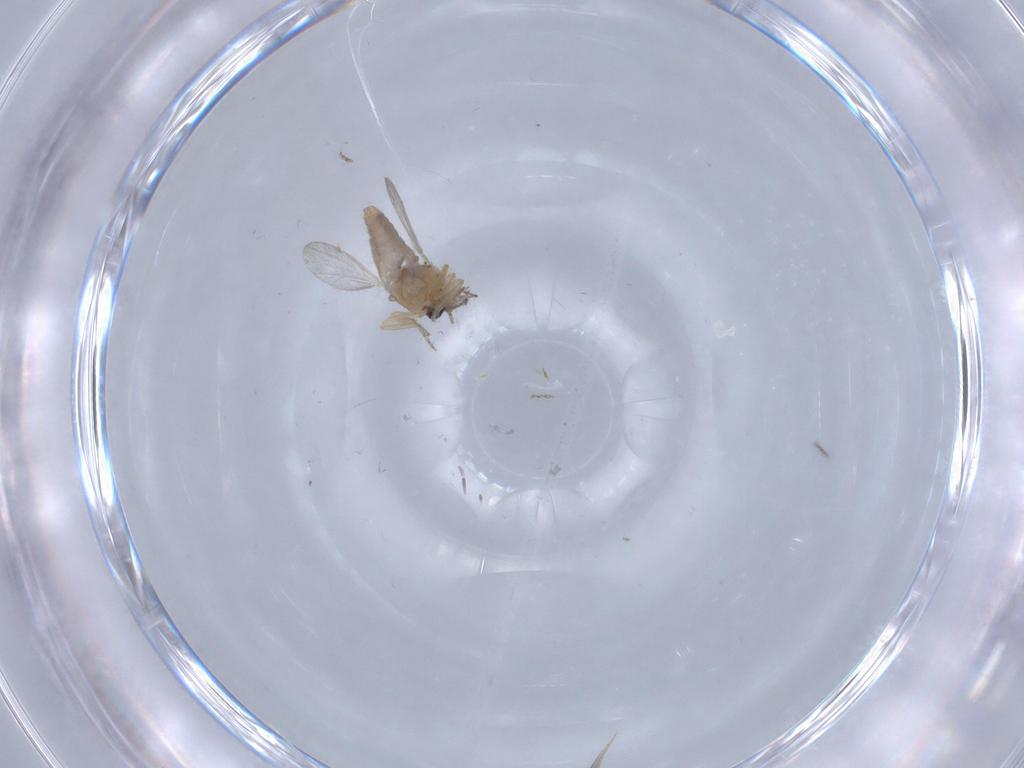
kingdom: Animalia
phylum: Arthropoda
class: Insecta
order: Diptera
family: Ceratopogonidae
